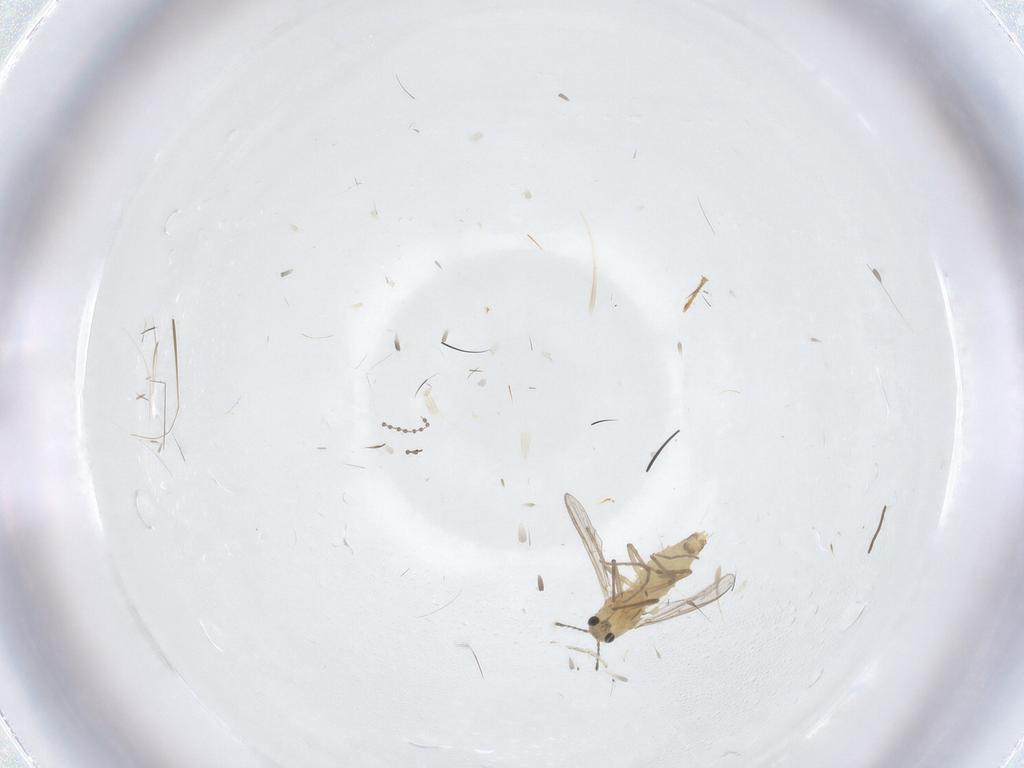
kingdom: Animalia
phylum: Arthropoda
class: Insecta
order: Diptera
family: Chironomidae
